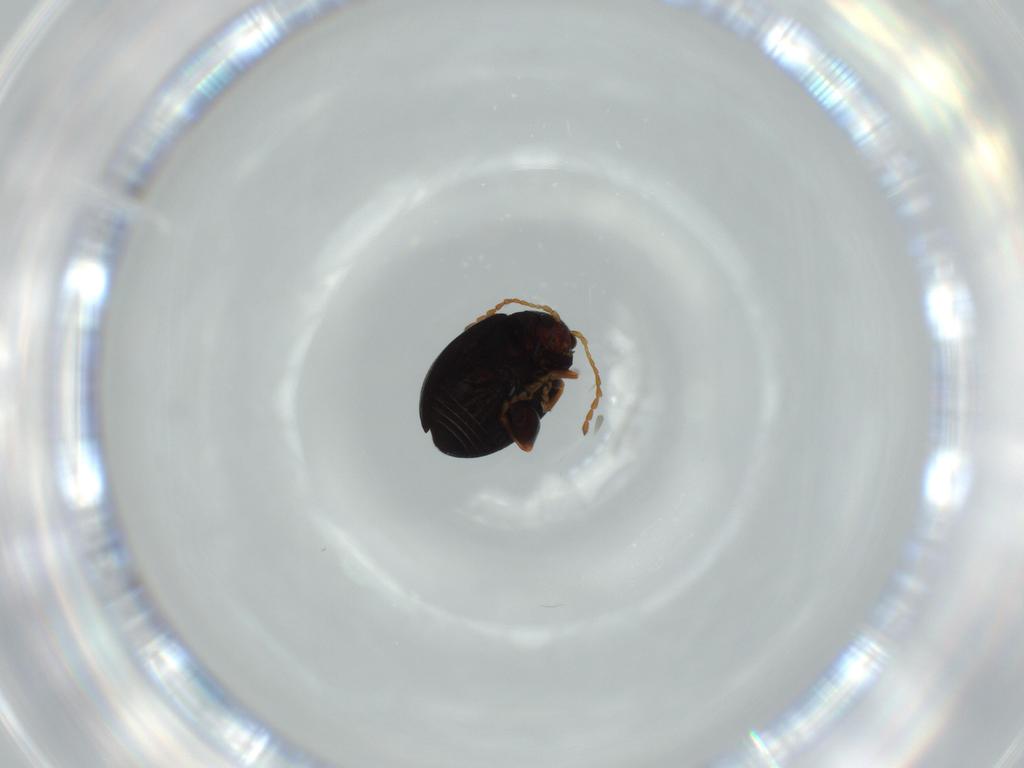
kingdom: Animalia
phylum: Arthropoda
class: Insecta
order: Coleoptera
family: Chrysomelidae
